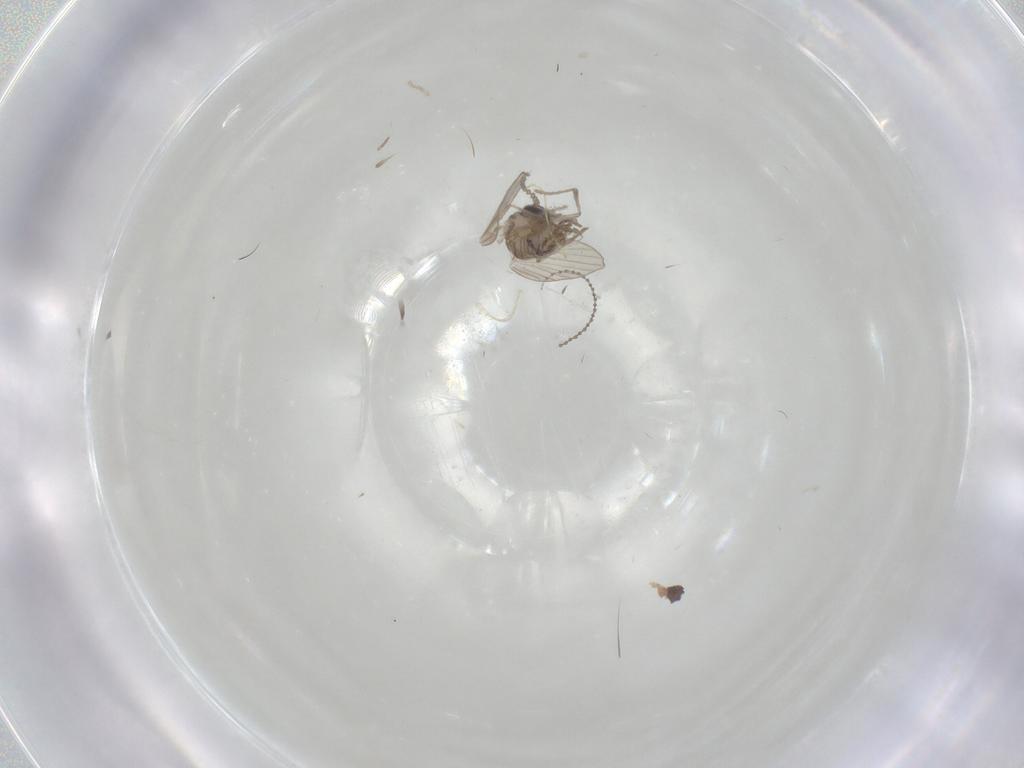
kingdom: Animalia
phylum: Arthropoda
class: Insecta
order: Diptera
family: Psychodidae
